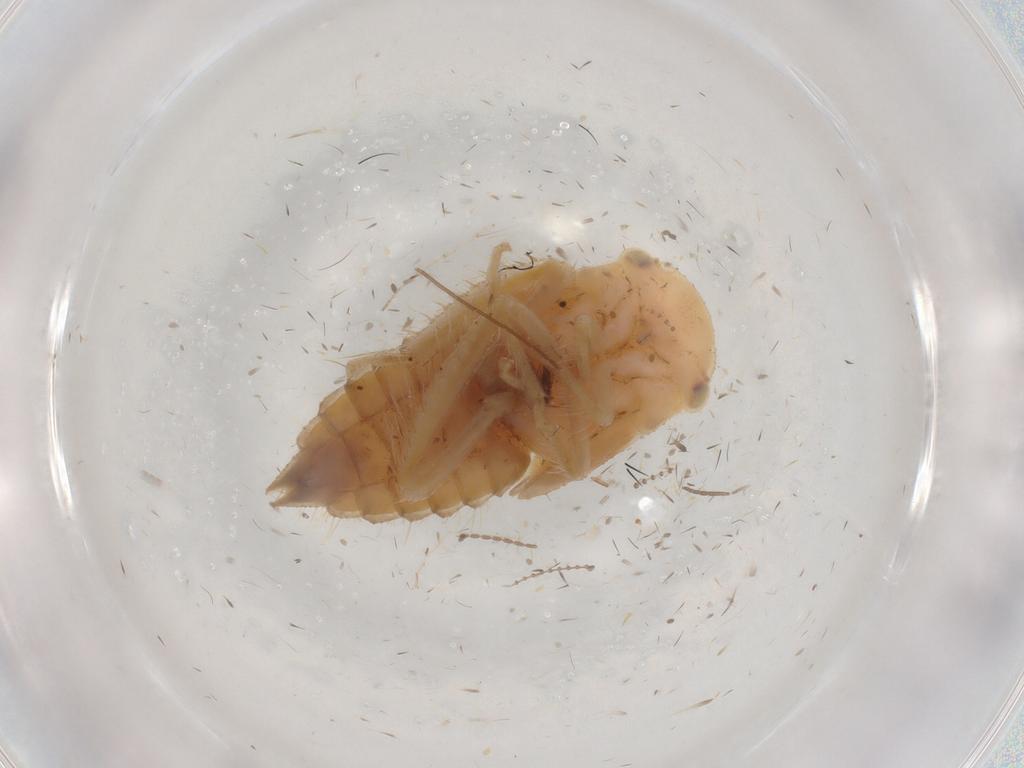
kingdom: Animalia
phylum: Arthropoda
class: Insecta
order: Hemiptera
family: Cicadellidae
